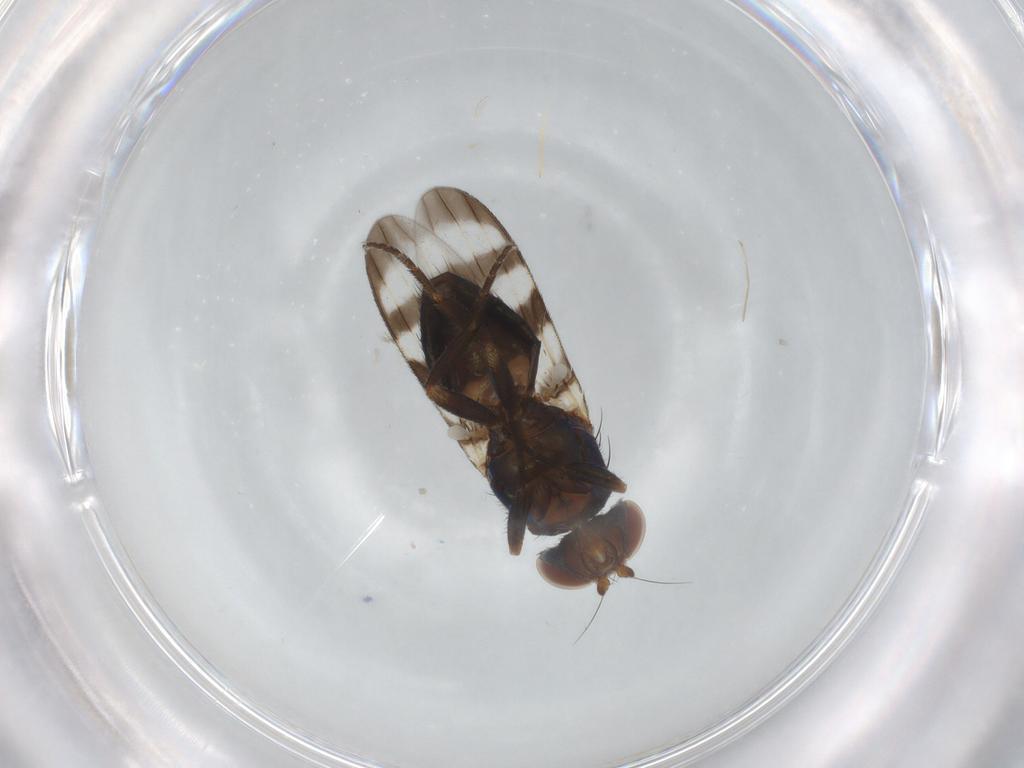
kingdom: Animalia
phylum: Arthropoda
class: Insecta
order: Diptera
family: Ulidiidae
